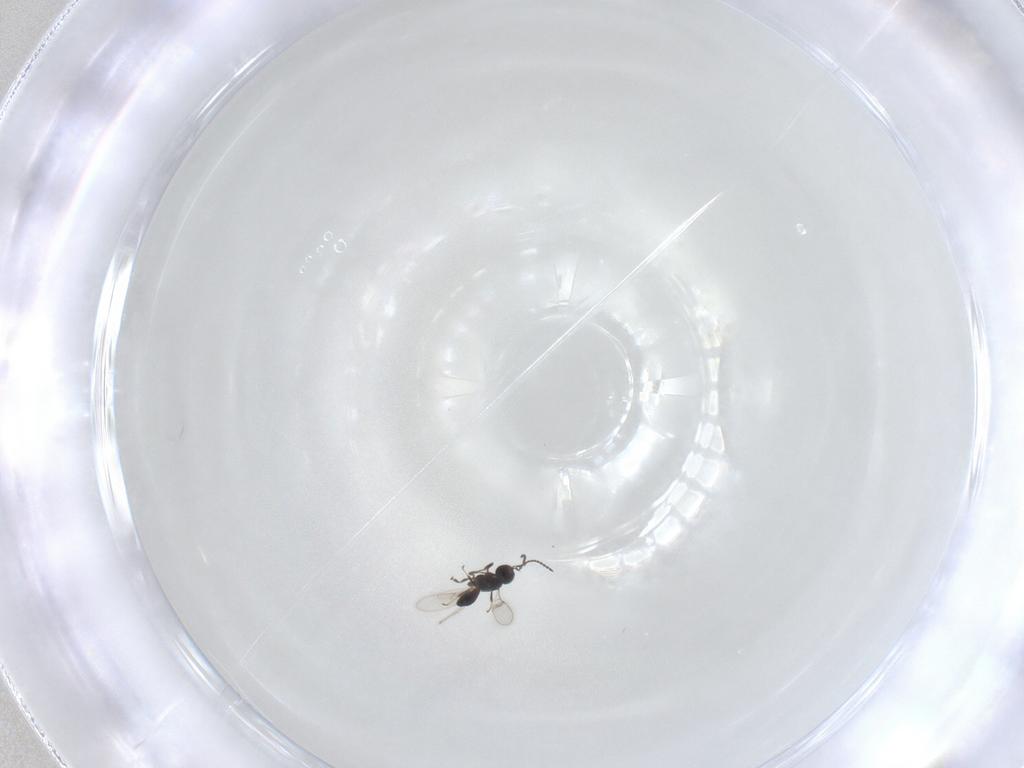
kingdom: Animalia
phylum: Arthropoda
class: Insecta
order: Hymenoptera
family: Scelionidae
